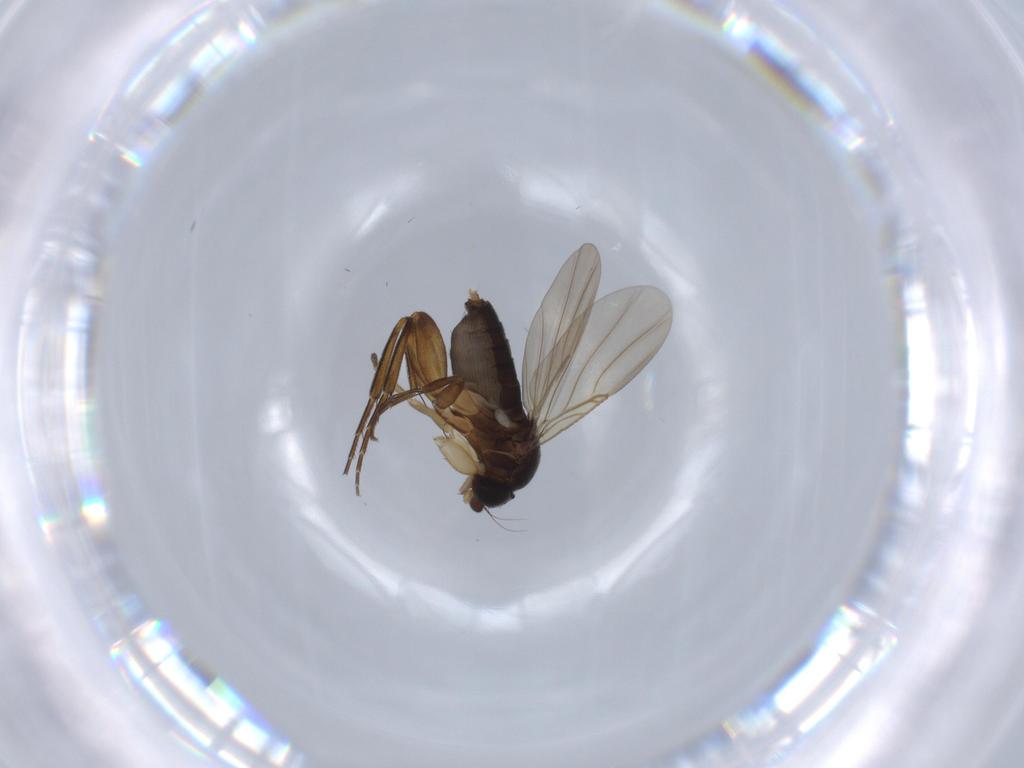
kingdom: Animalia
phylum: Arthropoda
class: Insecta
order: Diptera
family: Phoridae
